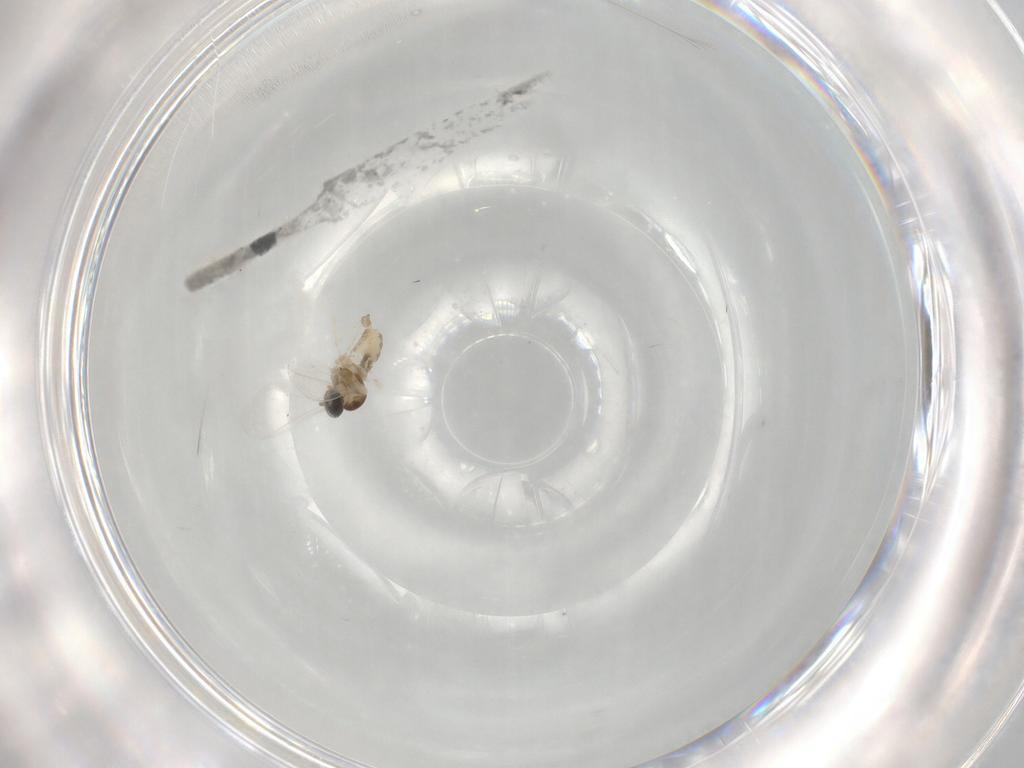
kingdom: Animalia
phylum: Arthropoda
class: Insecta
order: Diptera
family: Cecidomyiidae
